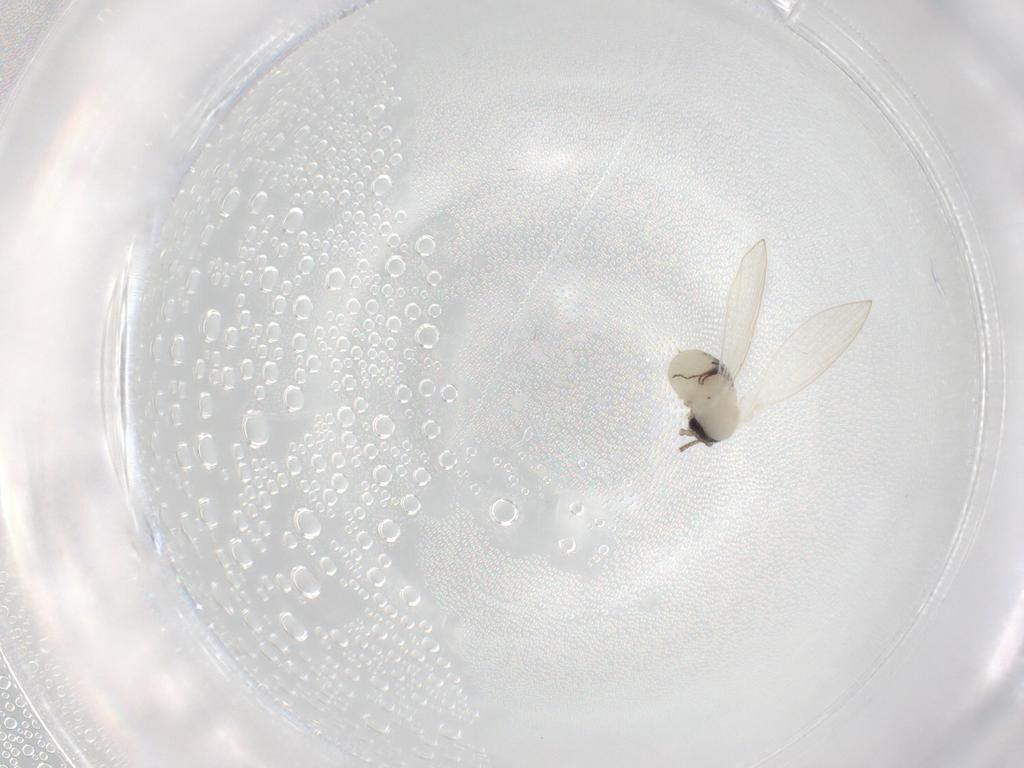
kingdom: Animalia
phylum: Arthropoda
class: Insecta
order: Diptera
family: Psychodidae
